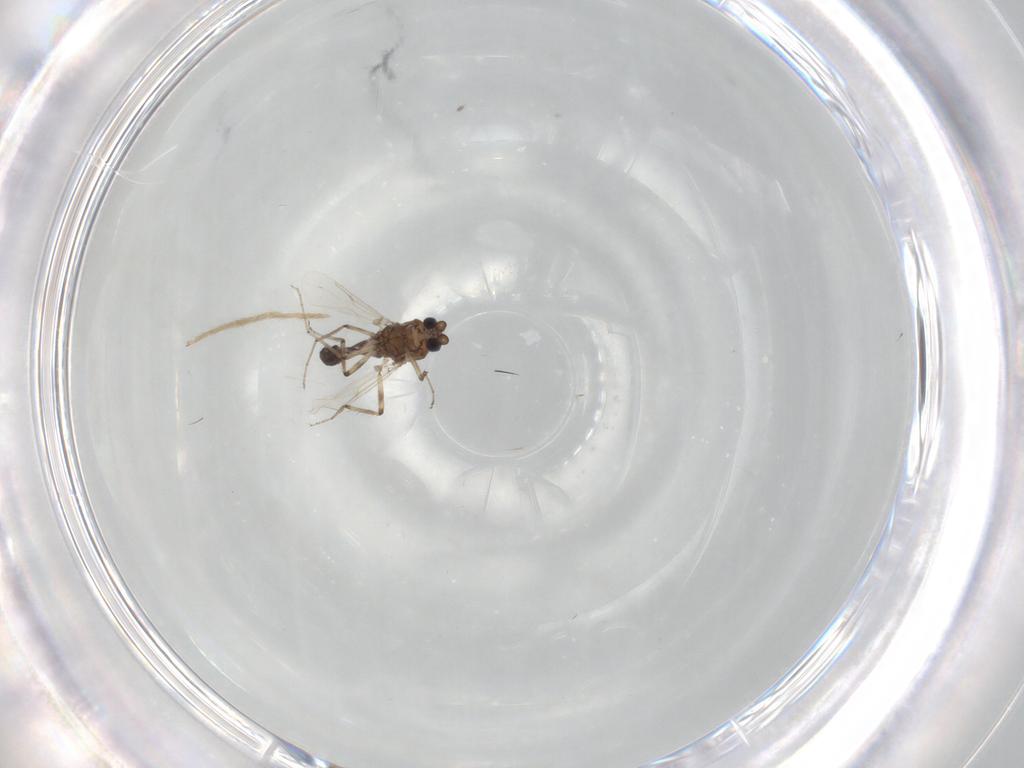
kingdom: Animalia
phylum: Arthropoda
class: Insecta
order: Diptera
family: Ceratopogonidae
